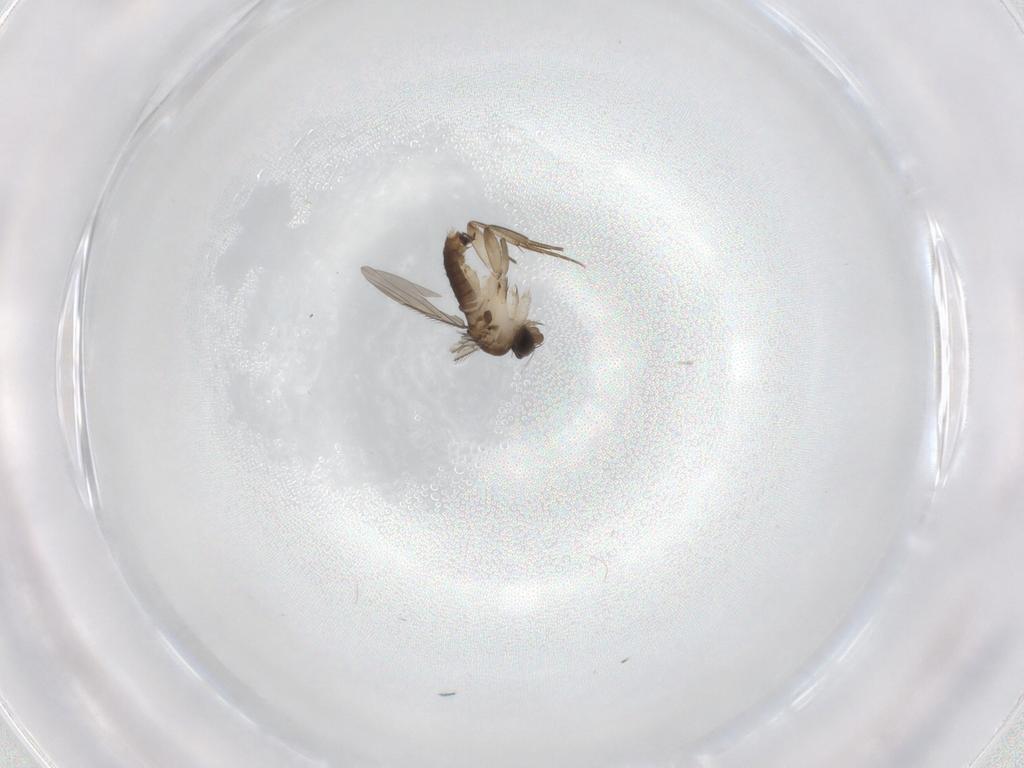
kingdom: Animalia
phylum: Arthropoda
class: Insecta
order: Diptera
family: Phoridae
